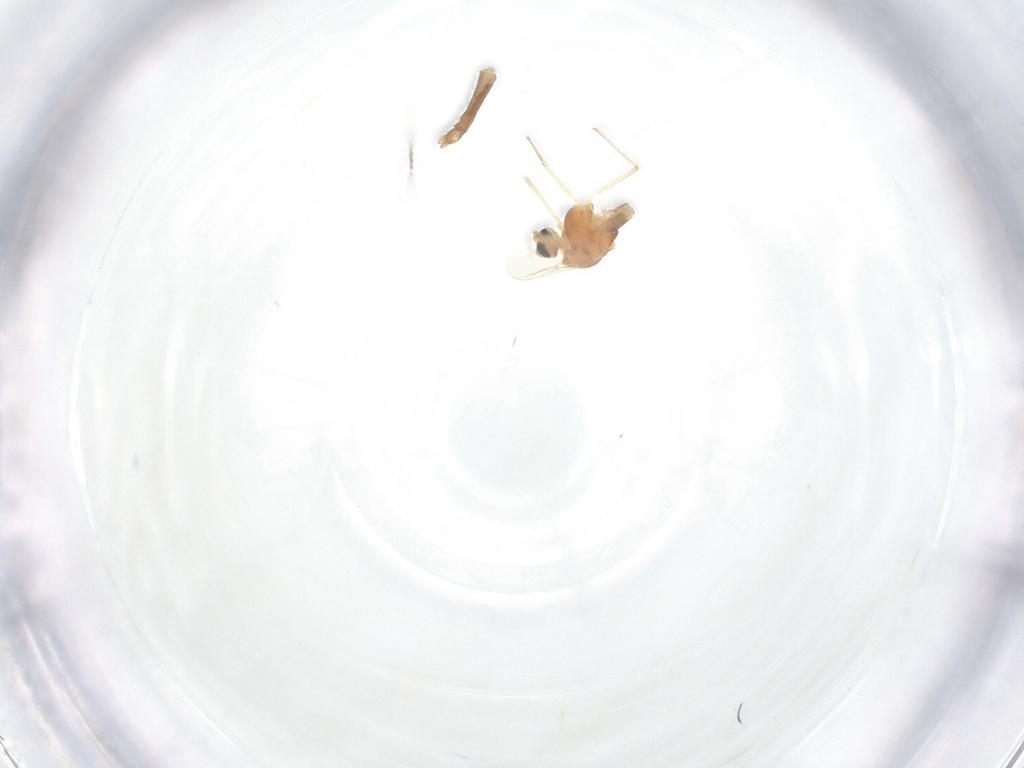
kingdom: Animalia
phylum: Arthropoda
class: Insecta
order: Diptera
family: Chironomidae
